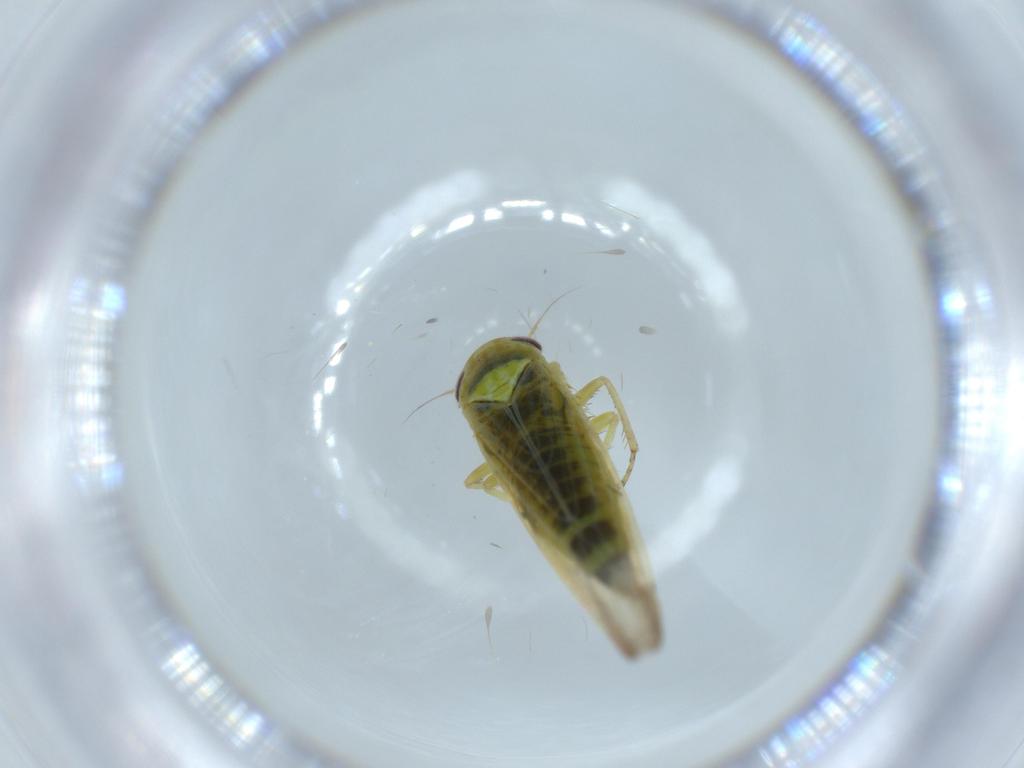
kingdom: Animalia
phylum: Arthropoda
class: Insecta
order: Hemiptera
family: Cicadellidae
